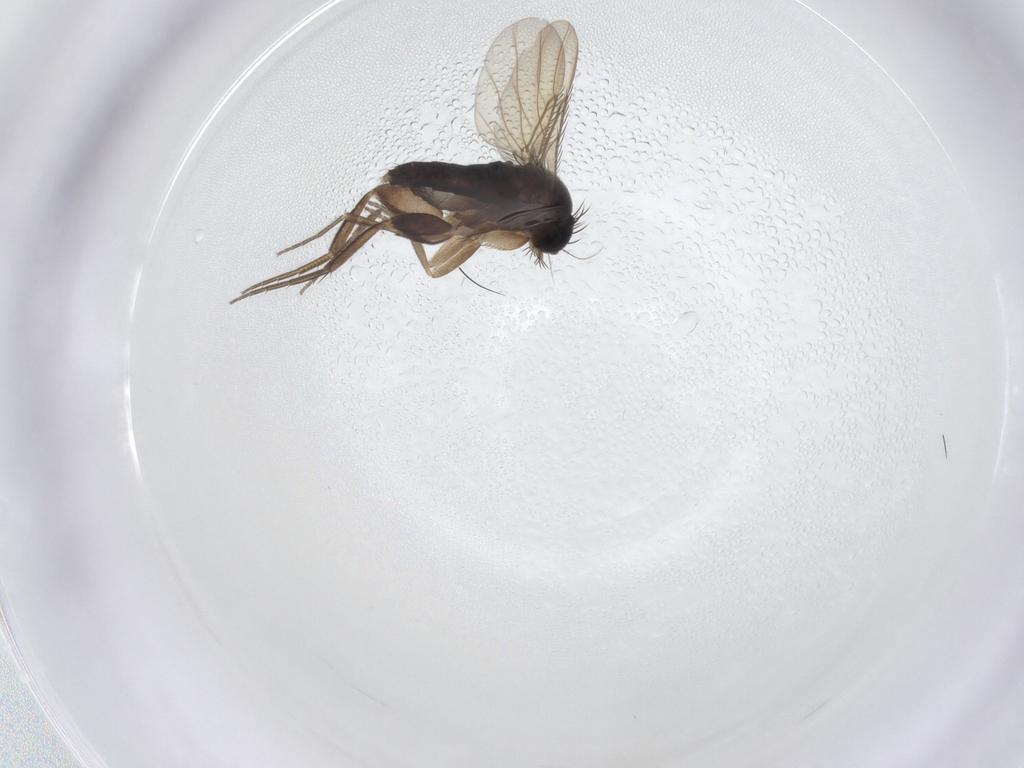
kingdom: Animalia
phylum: Arthropoda
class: Insecta
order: Diptera
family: Phoridae
